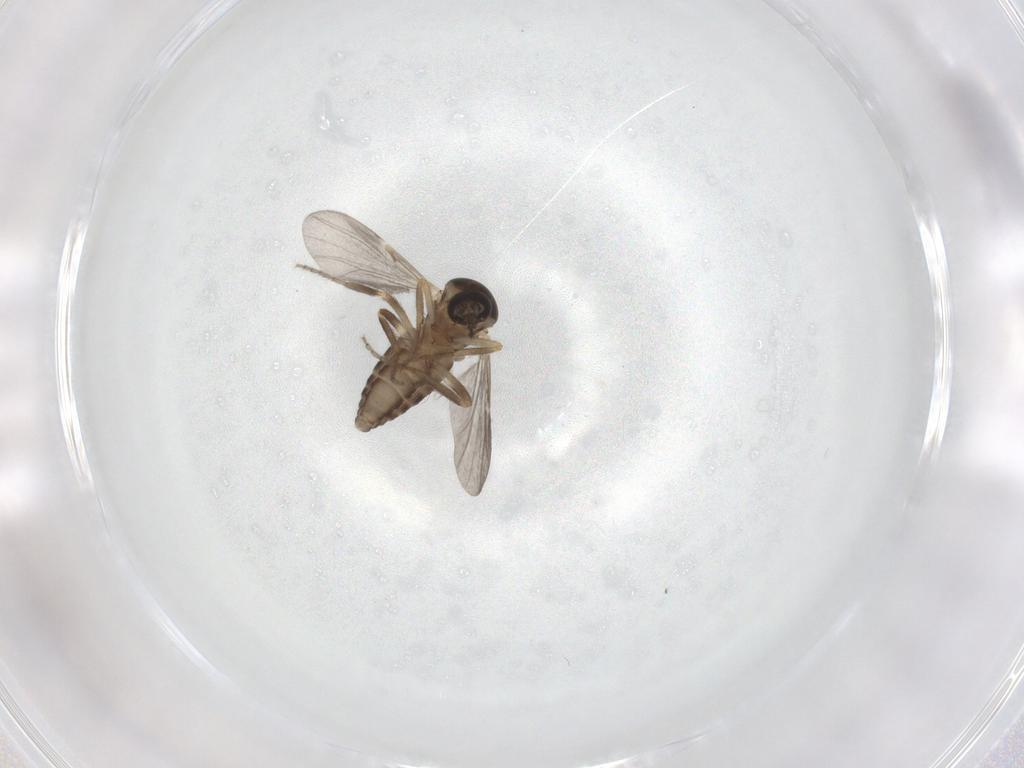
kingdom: Animalia
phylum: Arthropoda
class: Insecta
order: Diptera
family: Ceratopogonidae
